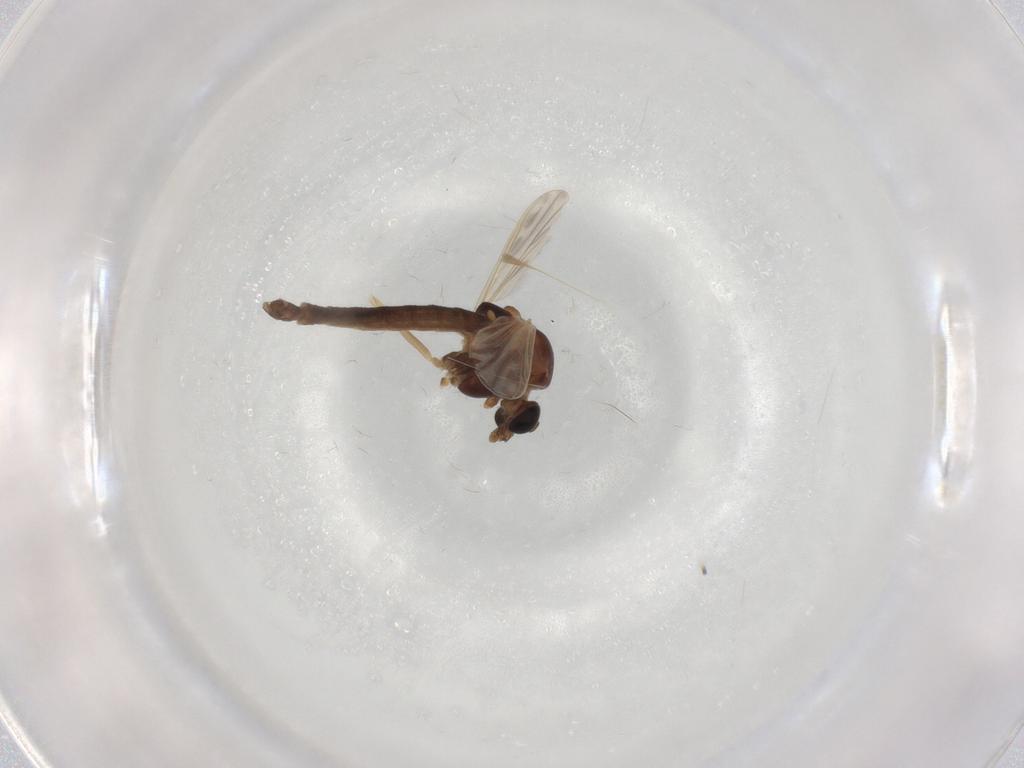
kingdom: Animalia
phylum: Arthropoda
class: Insecta
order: Diptera
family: Chironomidae
